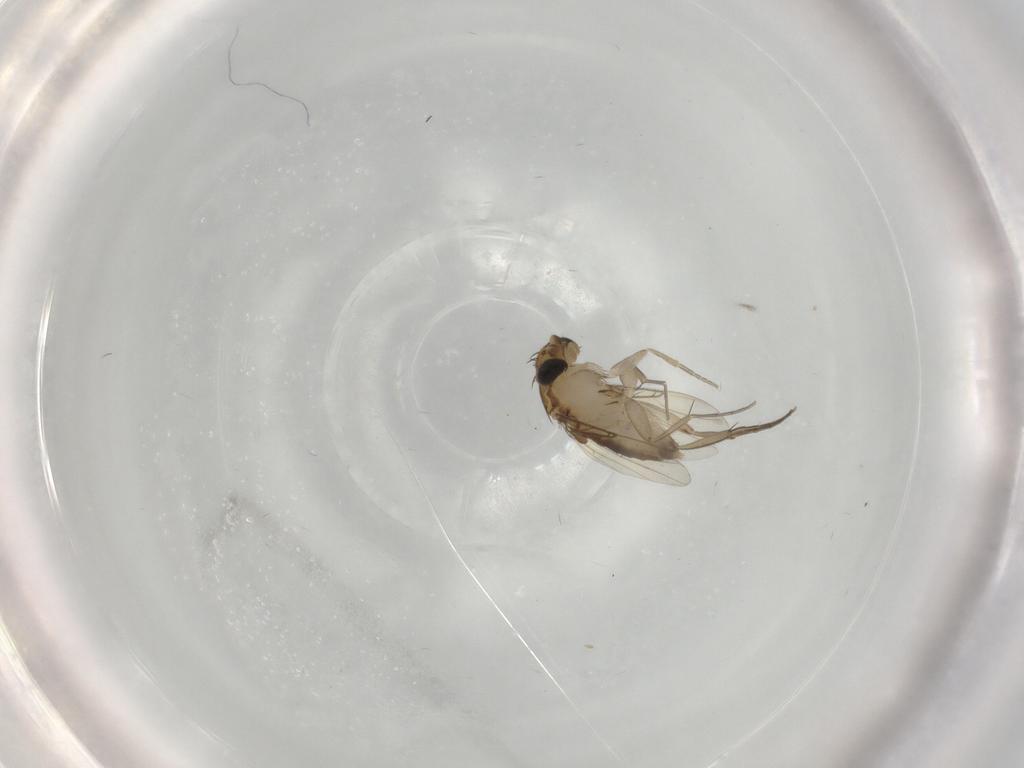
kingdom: Animalia
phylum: Arthropoda
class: Insecta
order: Diptera
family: Phoridae
